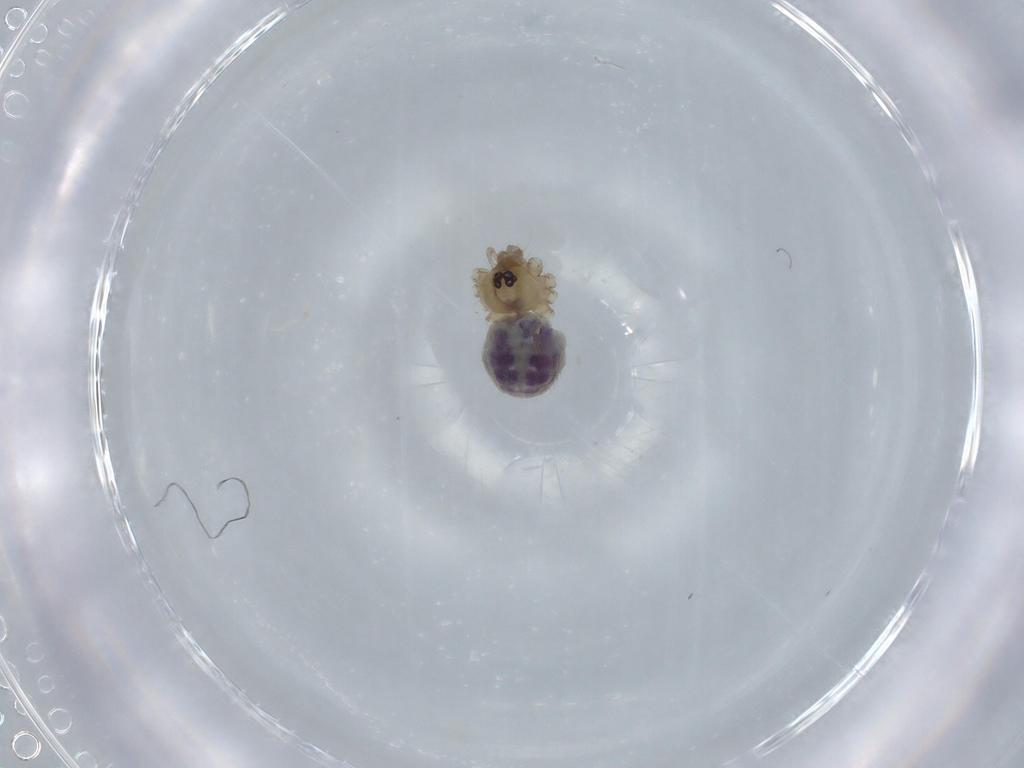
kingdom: Animalia
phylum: Arthropoda
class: Arachnida
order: Araneae
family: Pholcidae
